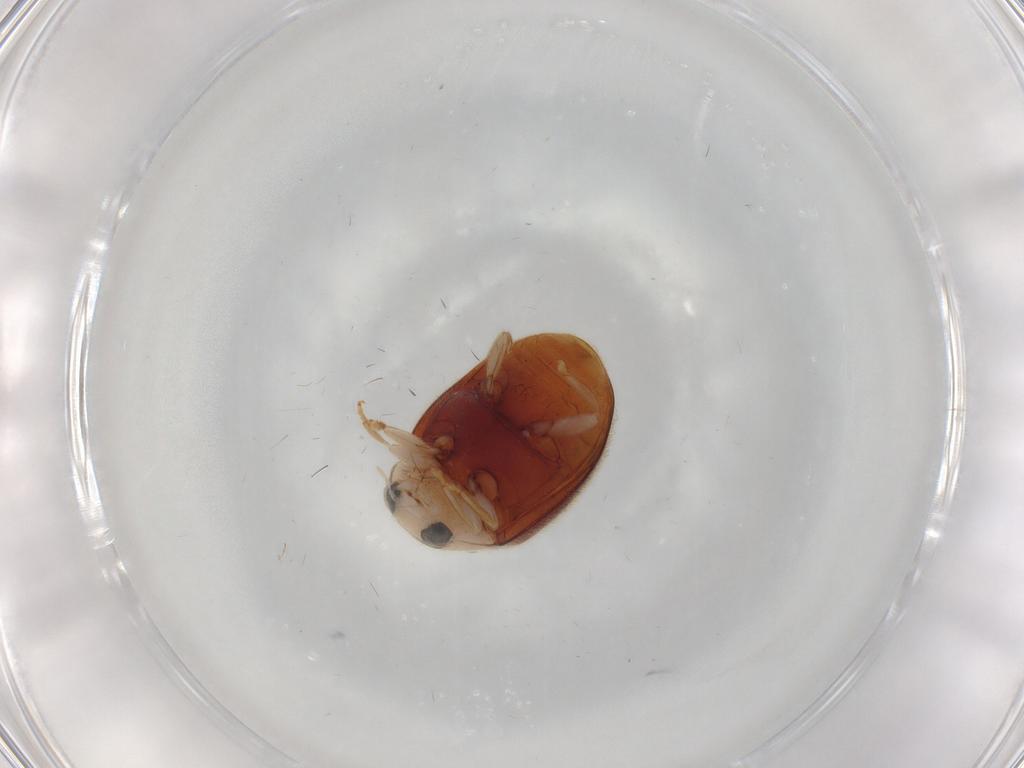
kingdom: Animalia
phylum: Arthropoda
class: Insecta
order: Coleoptera
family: Coccinellidae
